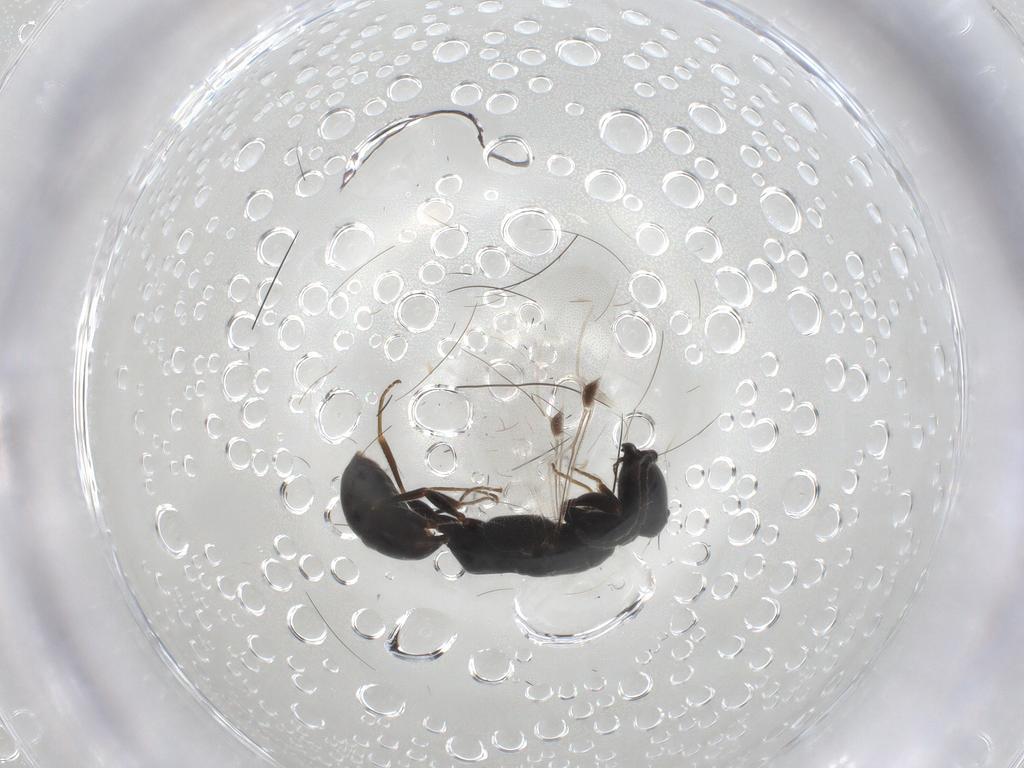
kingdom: Animalia
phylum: Arthropoda
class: Insecta
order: Hymenoptera
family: Bethylidae
